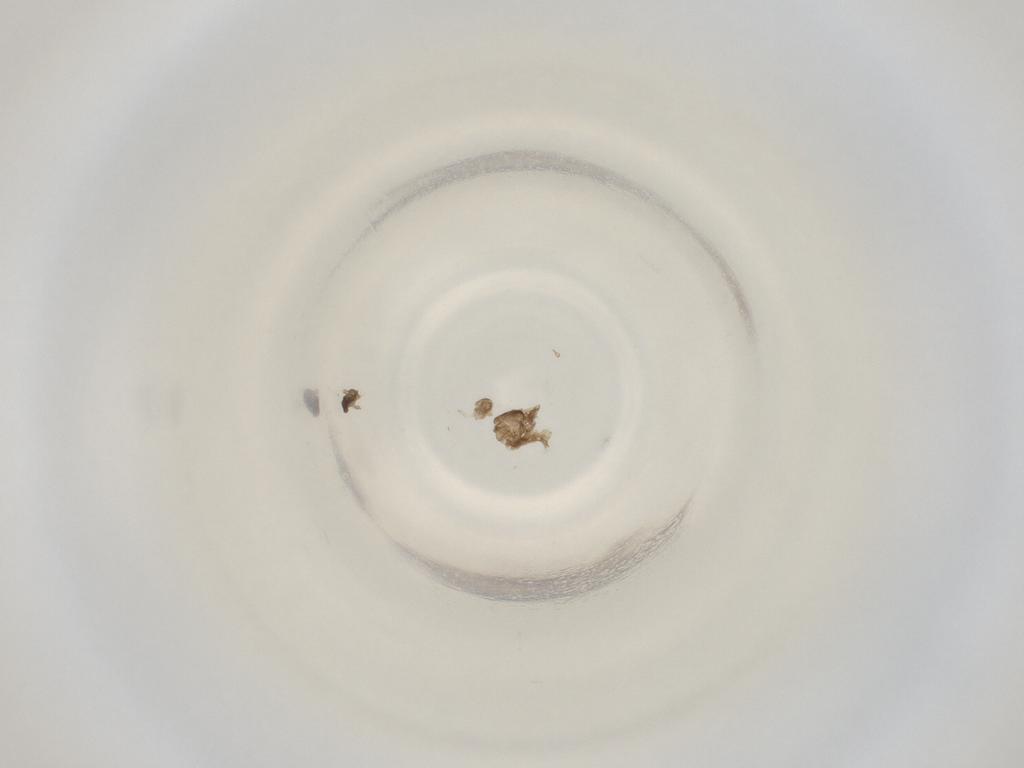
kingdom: Animalia
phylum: Arthropoda
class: Insecta
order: Diptera
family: Cecidomyiidae
